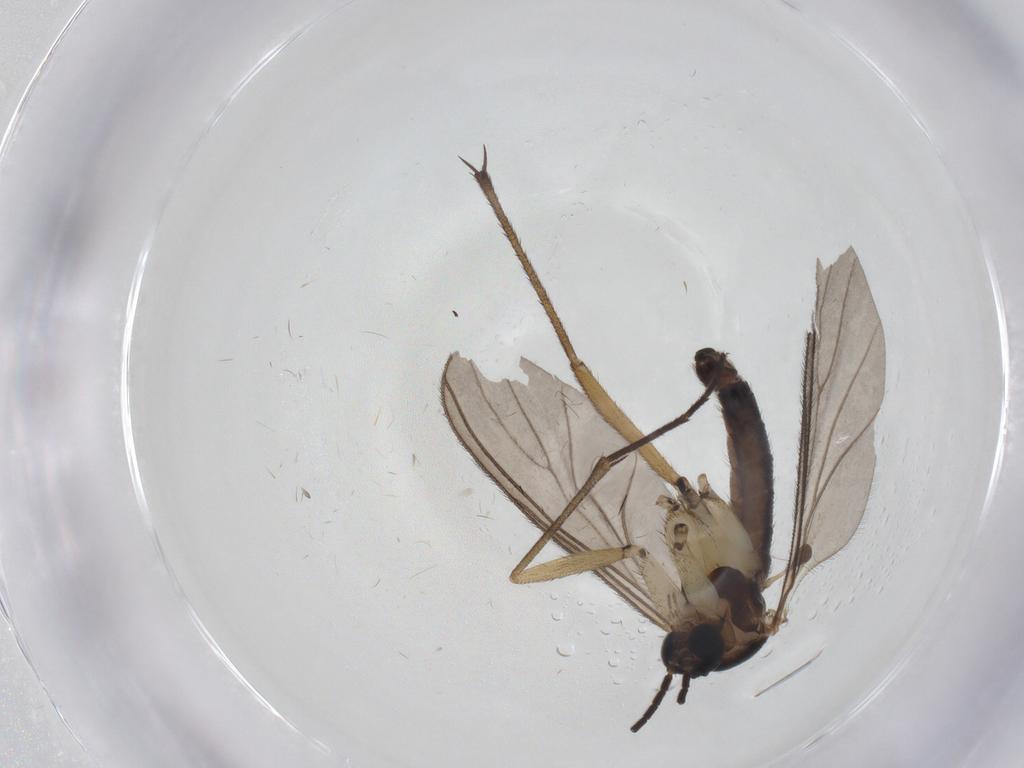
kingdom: Animalia
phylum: Arthropoda
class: Insecta
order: Diptera
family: Sciaridae
